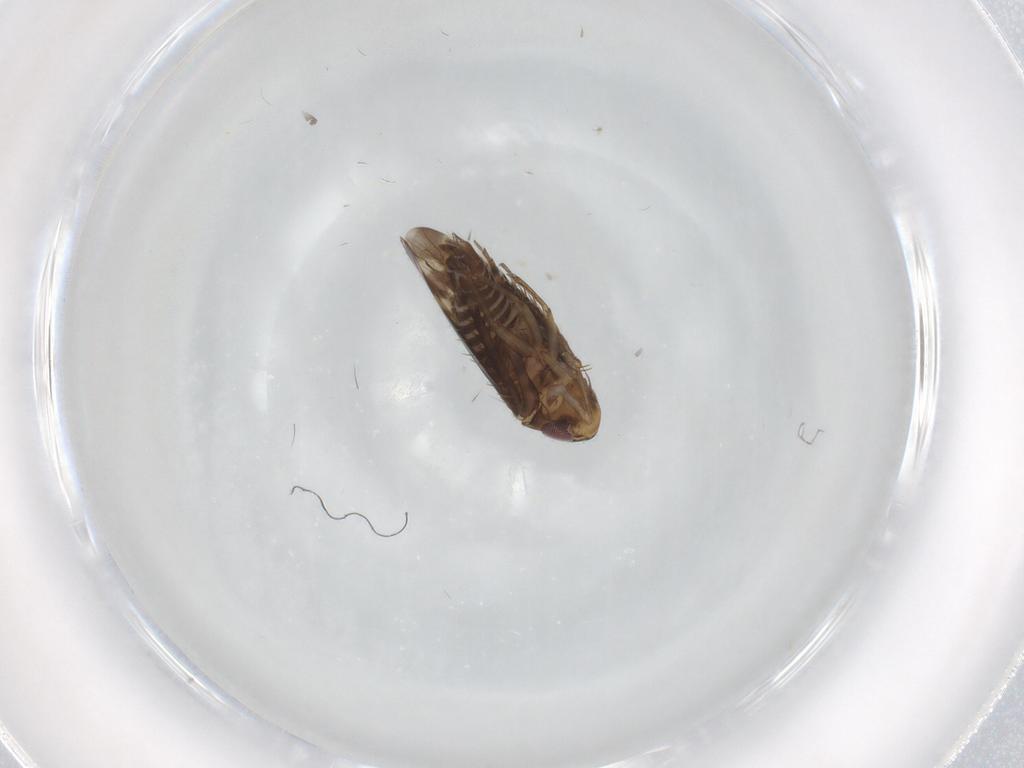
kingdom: Animalia
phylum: Arthropoda
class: Insecta
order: Hemiptera
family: Cicadellidae
